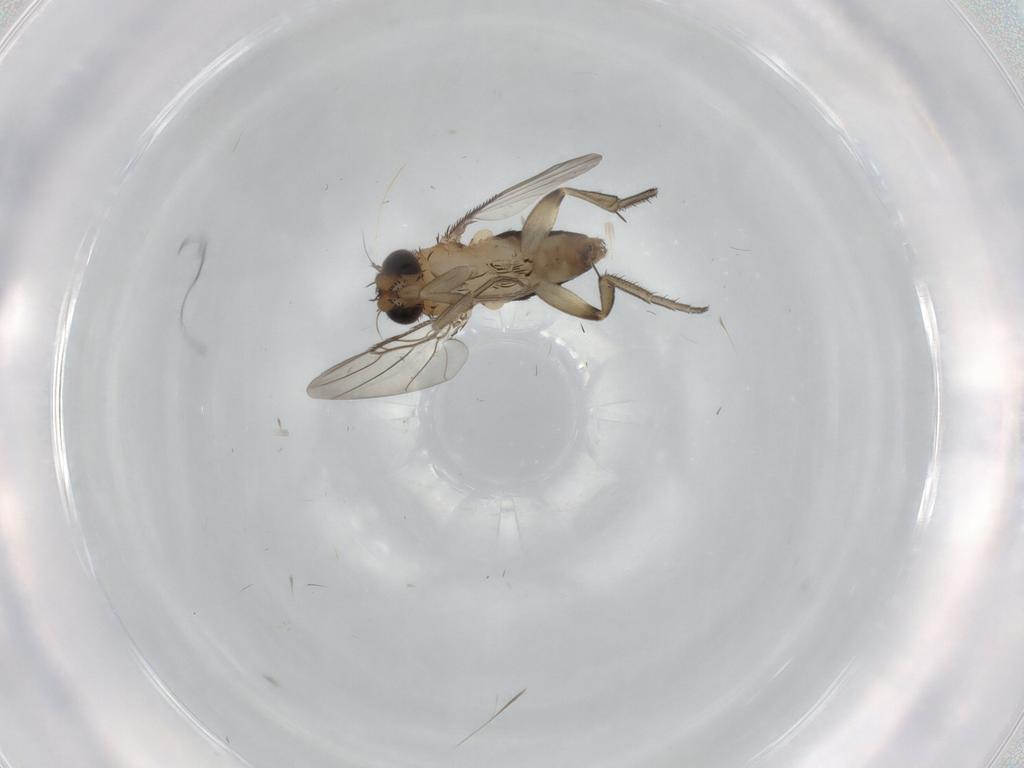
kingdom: Animalia
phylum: Arthropoda
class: Insecta
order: Diptera
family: Phoridae
